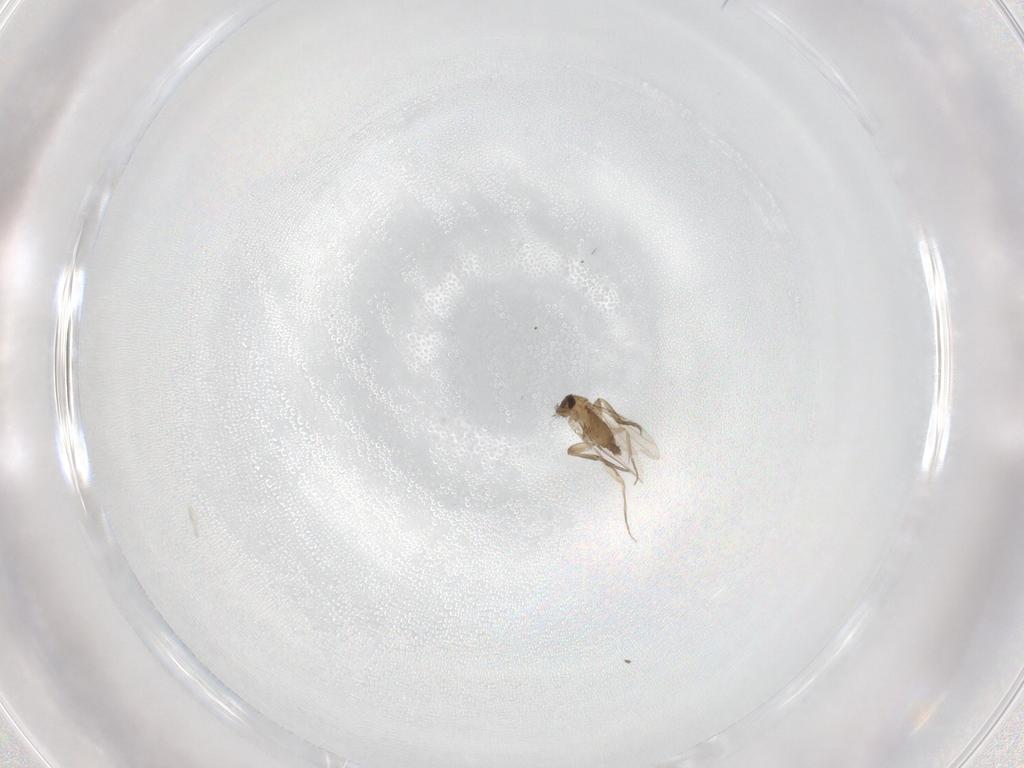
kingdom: Animalia
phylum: Arthropoda
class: Insecta
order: Diptera
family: Phoridae
